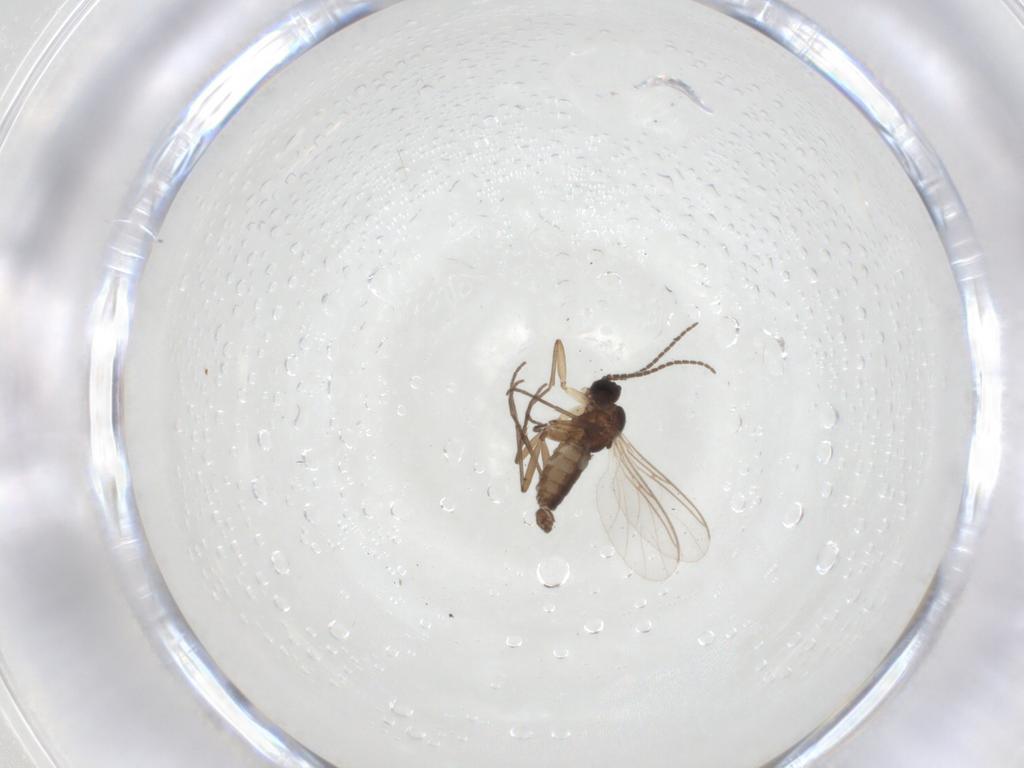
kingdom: Animalia
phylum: Arthropoda
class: Insecta
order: Diptera
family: Sciaridae
